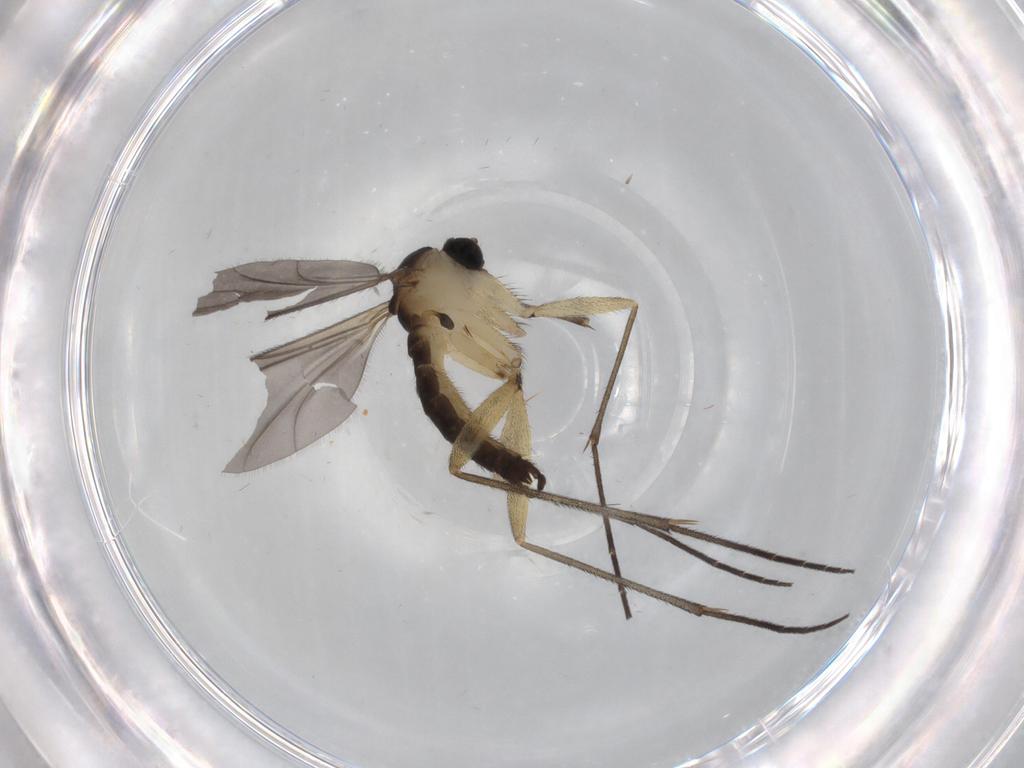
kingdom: Animalia
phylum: Arthropoda
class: Insecta
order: Diptera
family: Sciaridae
